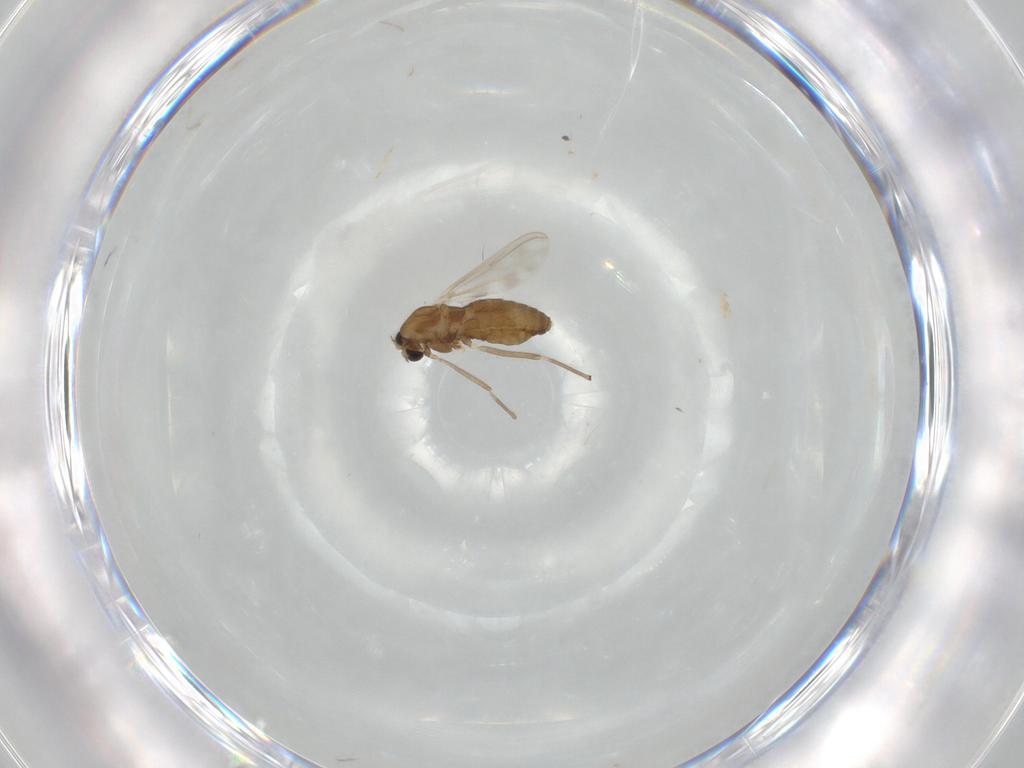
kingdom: Animalia
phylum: Arthropoda
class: Insecta
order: Diptera
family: Chironomidae
